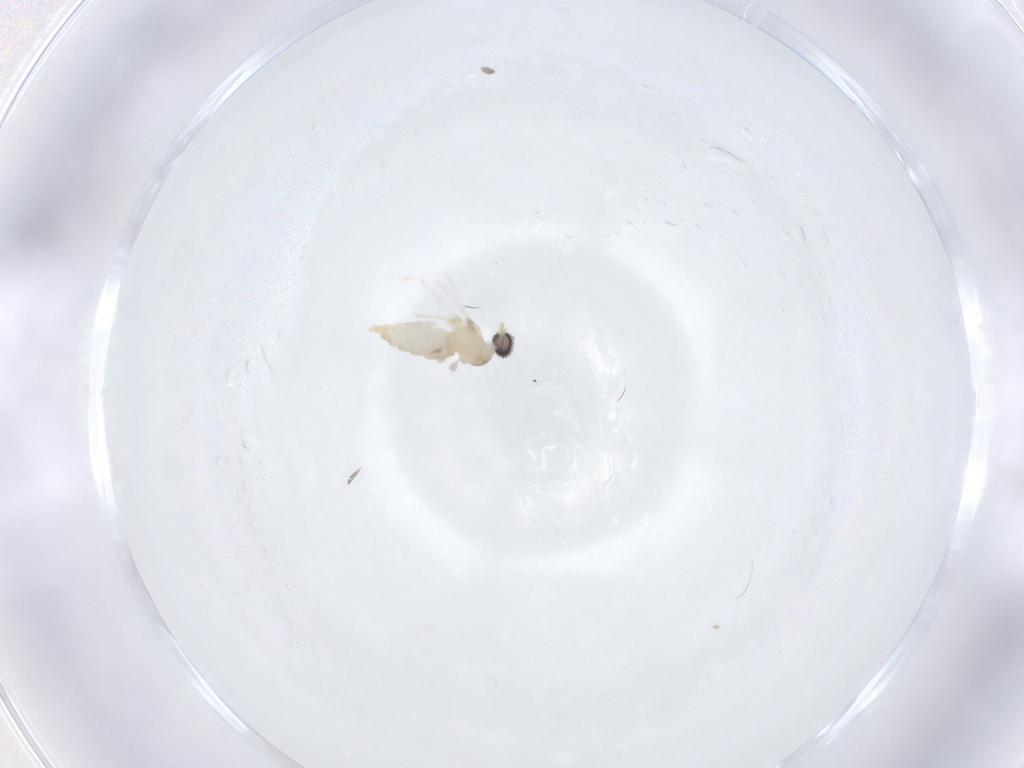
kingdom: Animalia
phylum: Arthropoda
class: Insecta
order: Diptera
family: Cecidomyiidae
